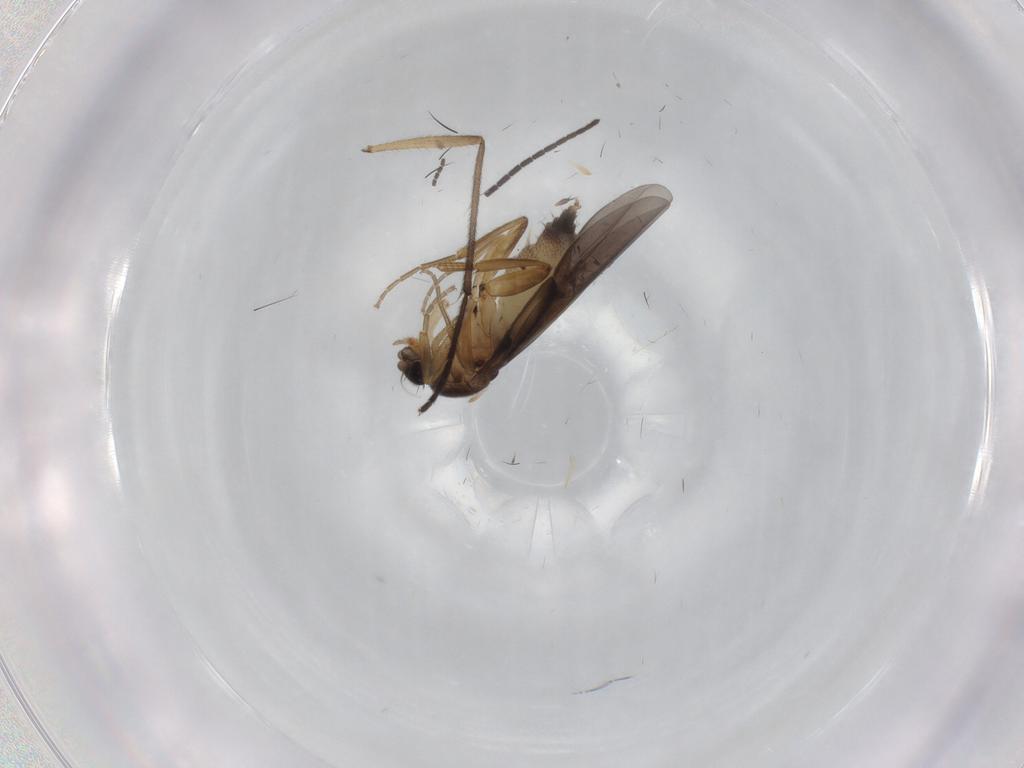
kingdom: Animalia
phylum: Arthropoda
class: Insecta
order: Diptera
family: Phoridae
